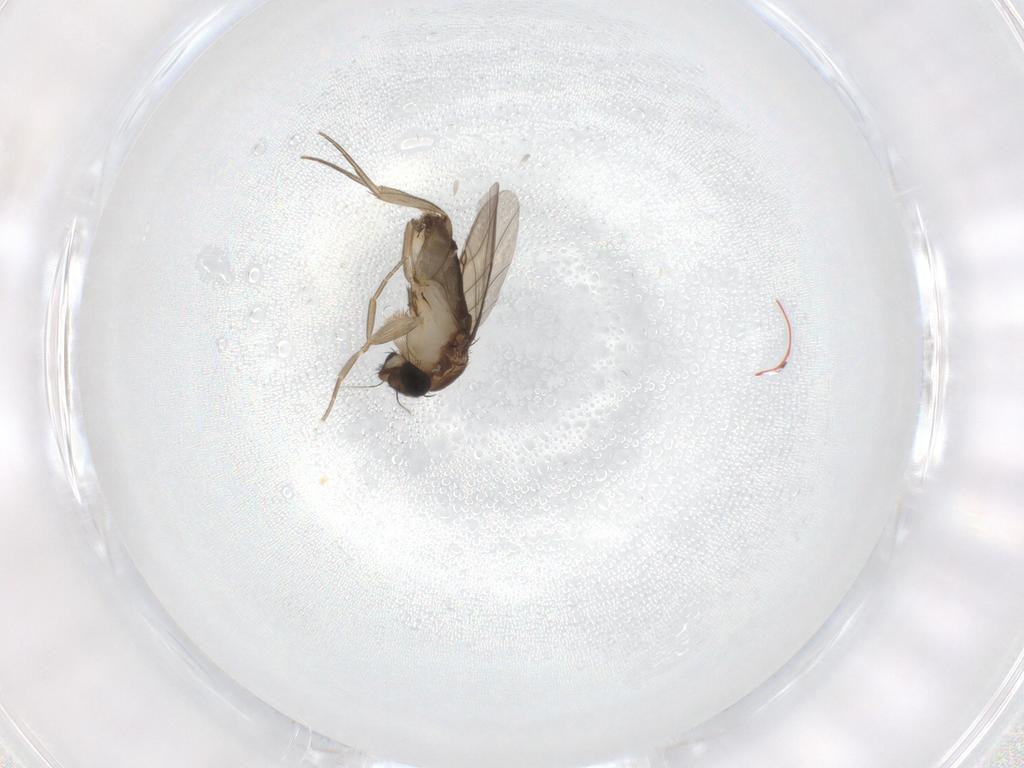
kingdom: Animalia
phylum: Arthropoda
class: Insecta
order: Diptera
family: Phoridae
